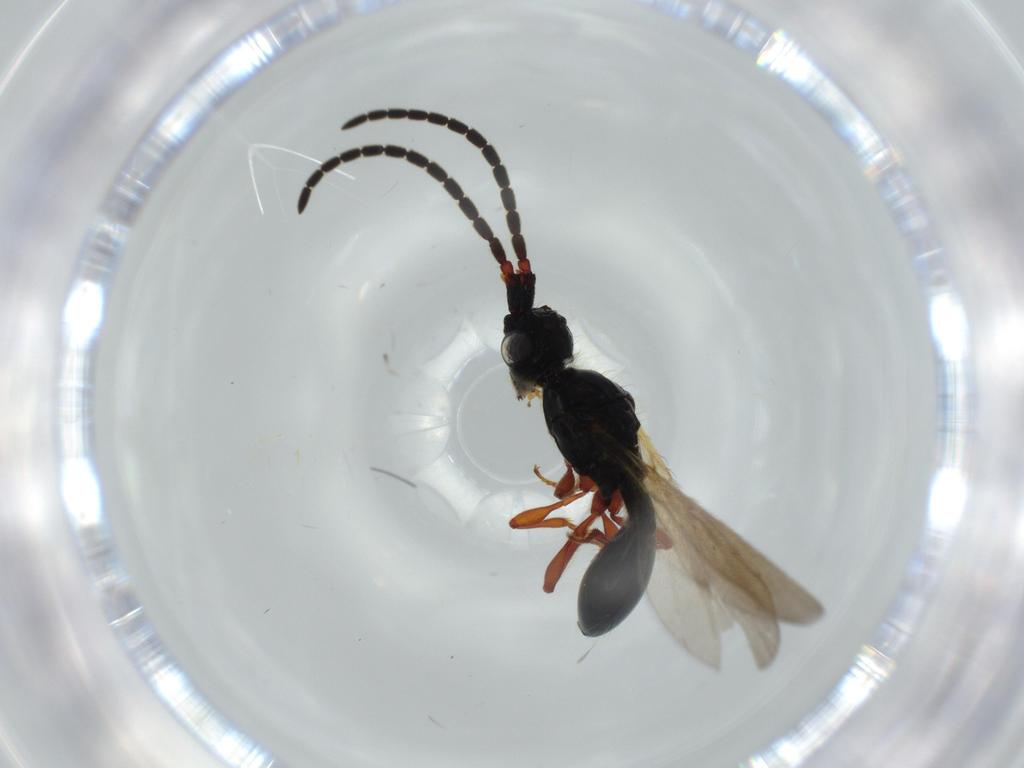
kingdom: Animalia
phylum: Arthropoda
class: Insecta
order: Hymenoptera
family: Diapriidae
